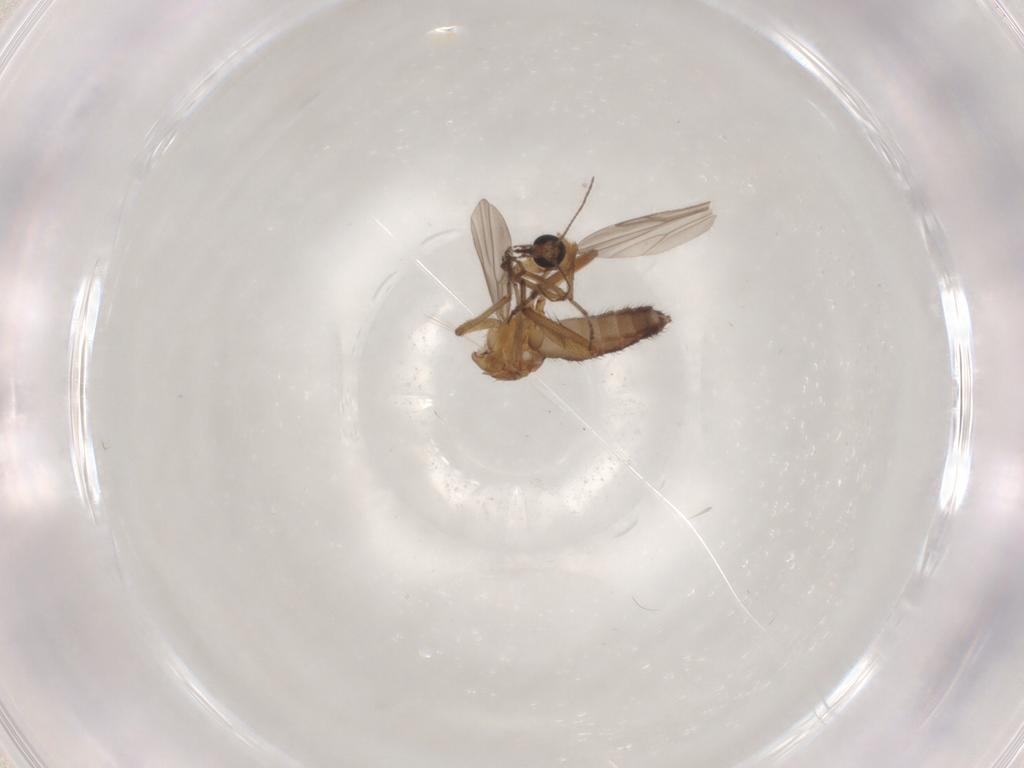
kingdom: Animalia
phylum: Arthropoda
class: Insecta
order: Diptera
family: Ceratopogonidae
